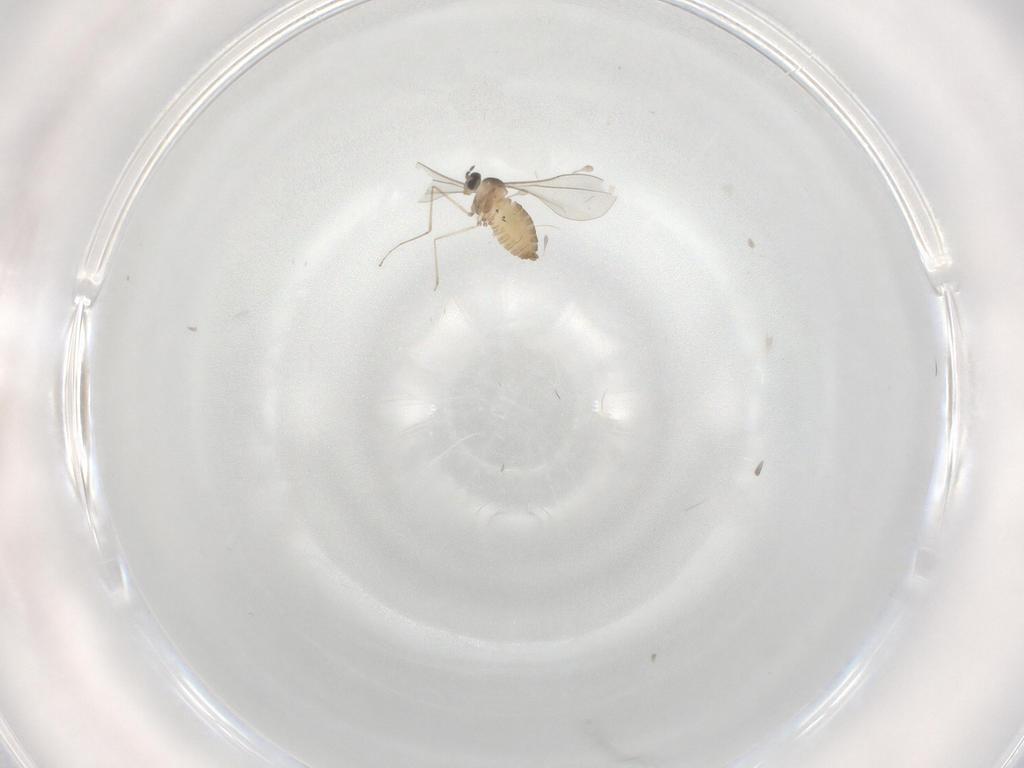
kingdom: Animalia
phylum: Arthropoda
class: Insecta
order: Diptera
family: Cecidomyiidae
